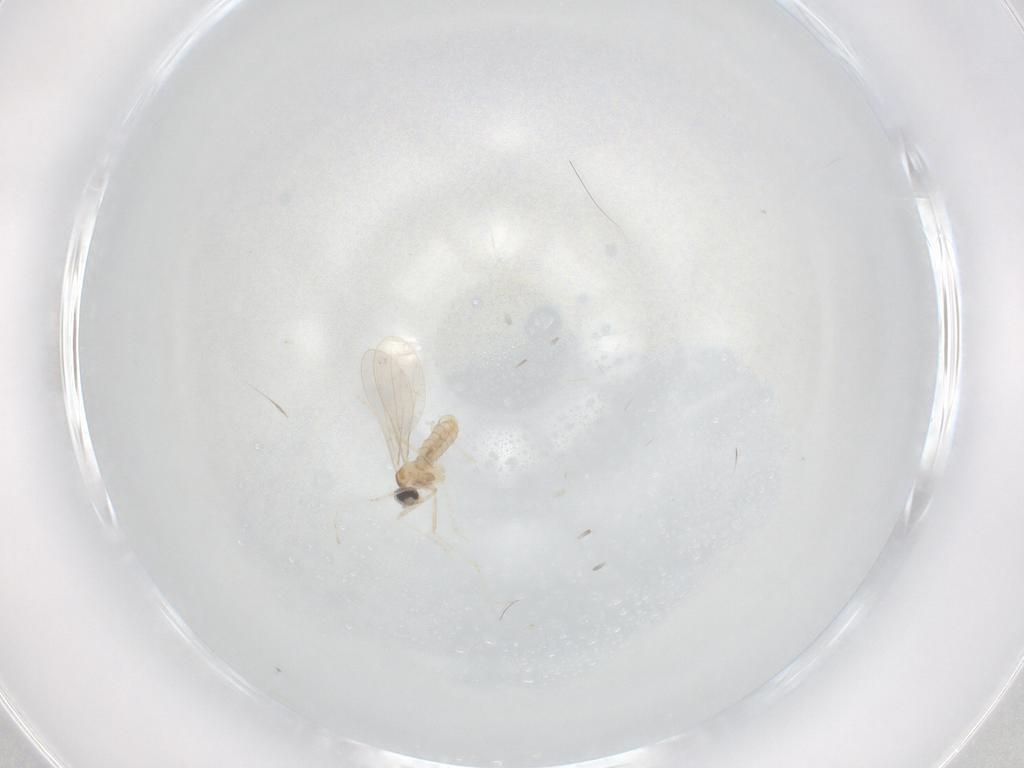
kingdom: Animalia
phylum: Arthropoda
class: Insecta
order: Diptera
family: Cecidomyiidae
